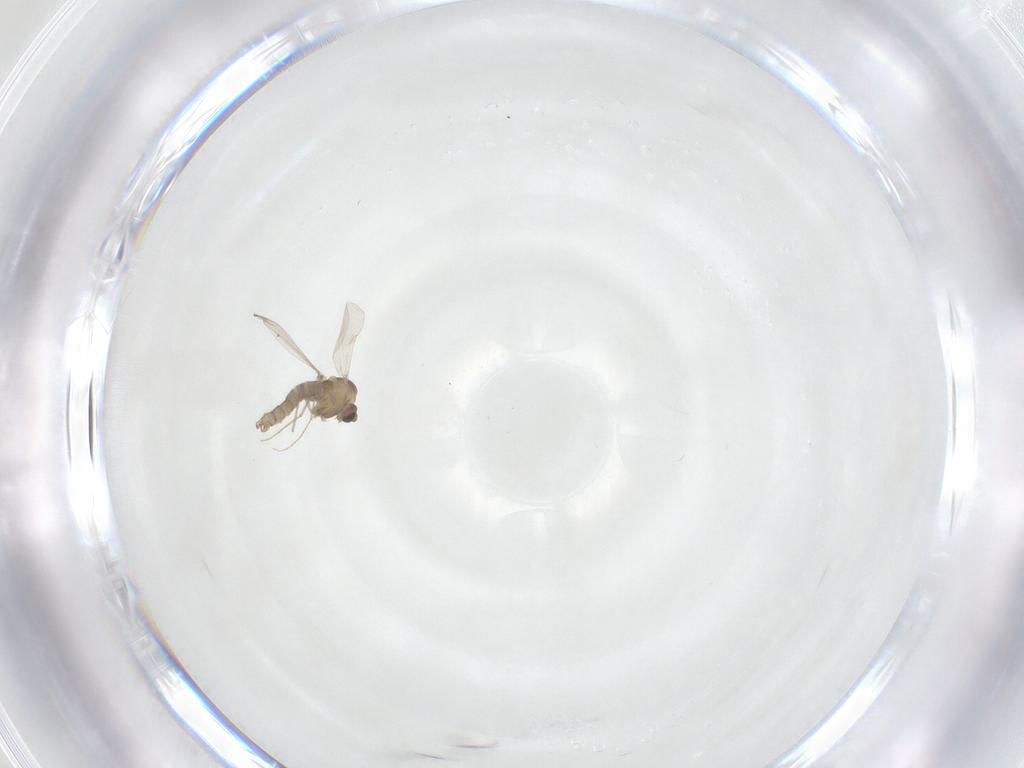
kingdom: Animalia
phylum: Arthropoda
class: Insecta
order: Diptera
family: Chironomidae
